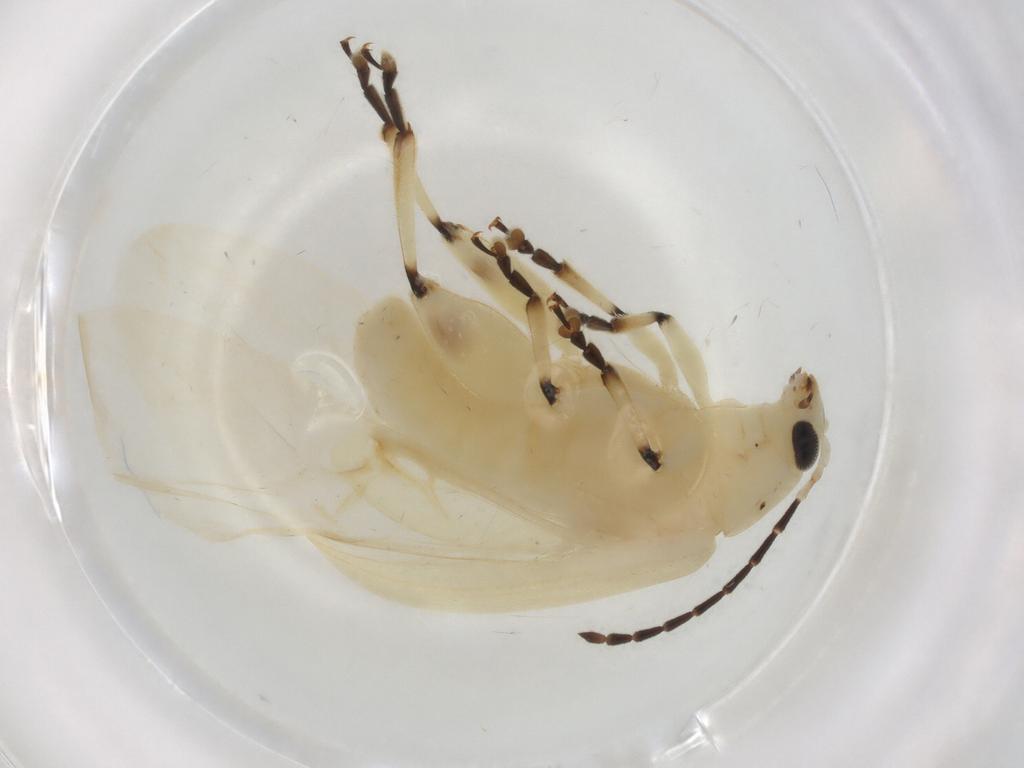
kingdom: Animalia
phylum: Arthropoda
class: Insecta
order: Coleoptera
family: Chrysomelidae
